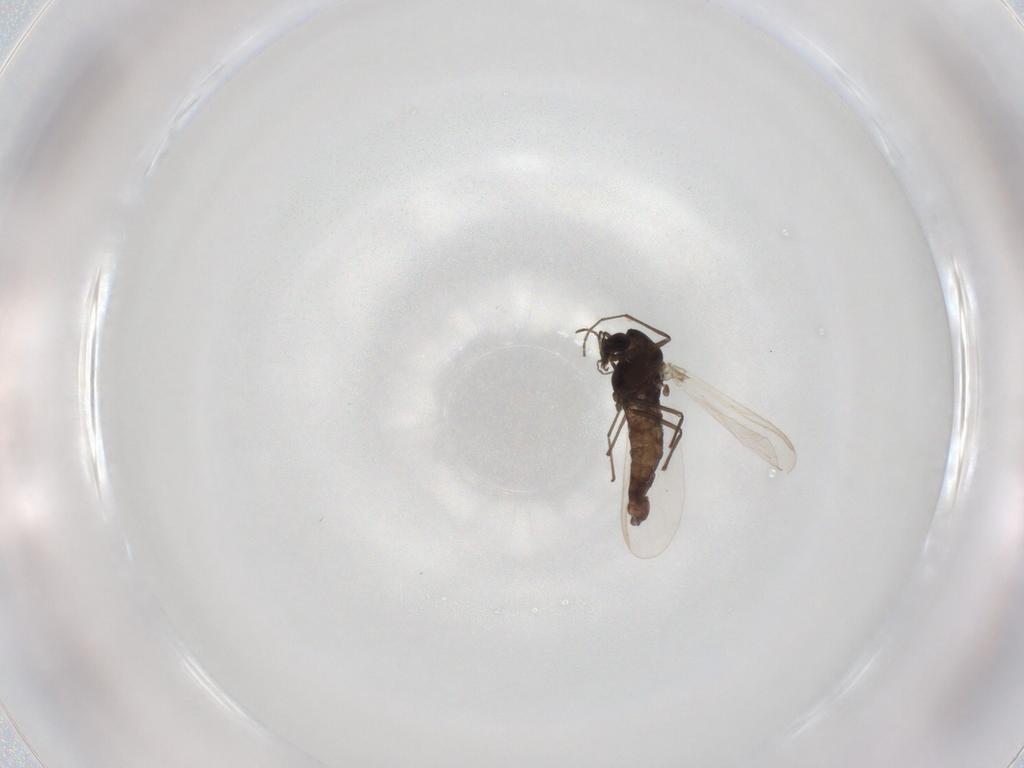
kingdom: Animalia
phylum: Arthropoda
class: Insecta
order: Diptera
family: Chironomidae
